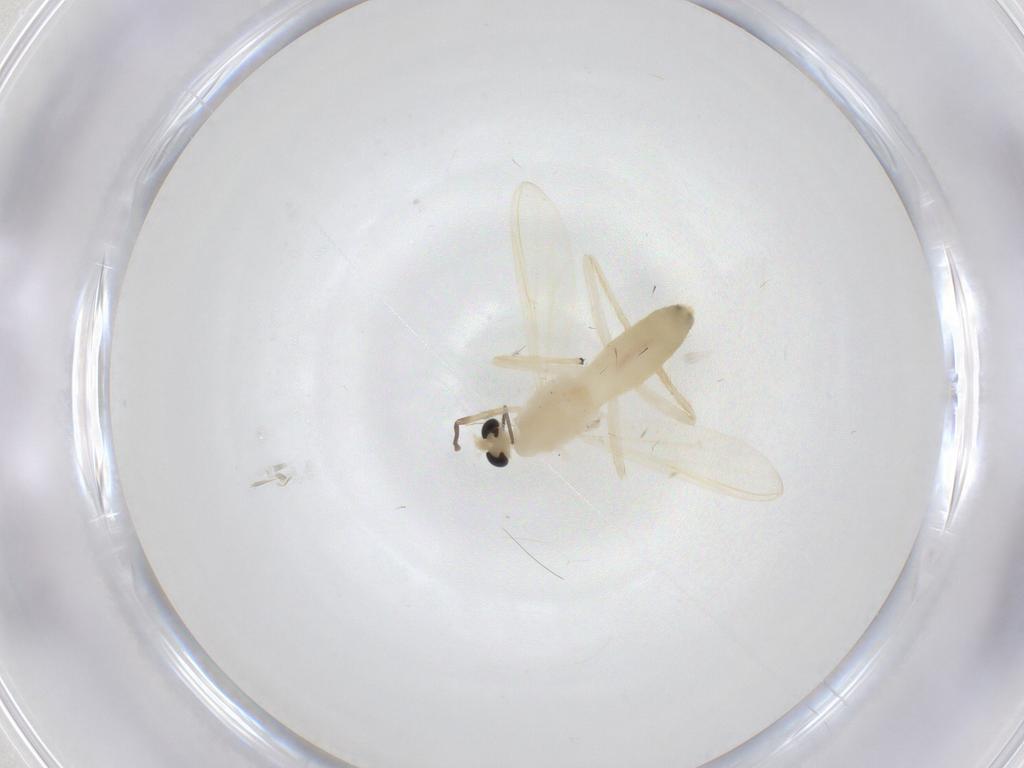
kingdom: Animalia
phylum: Arthropoda
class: Insecta
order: Diptera
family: Chironomidae
